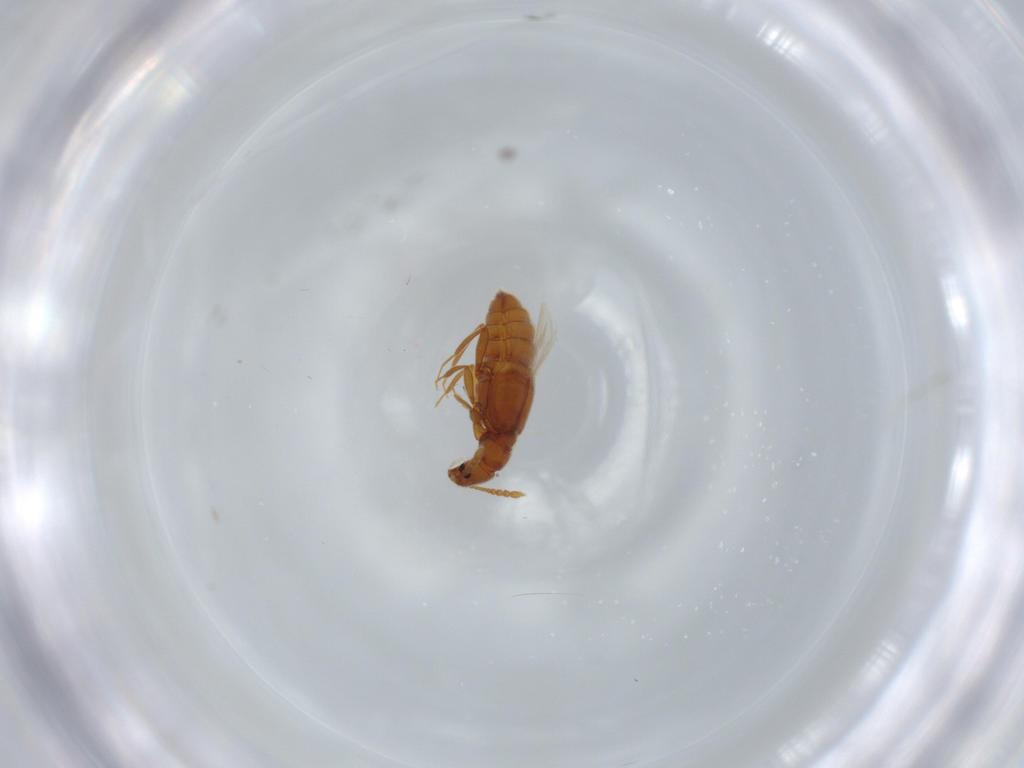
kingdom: Animalia
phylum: Arthropoda
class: Insecta
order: Coleoptera
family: Staphylinidae
